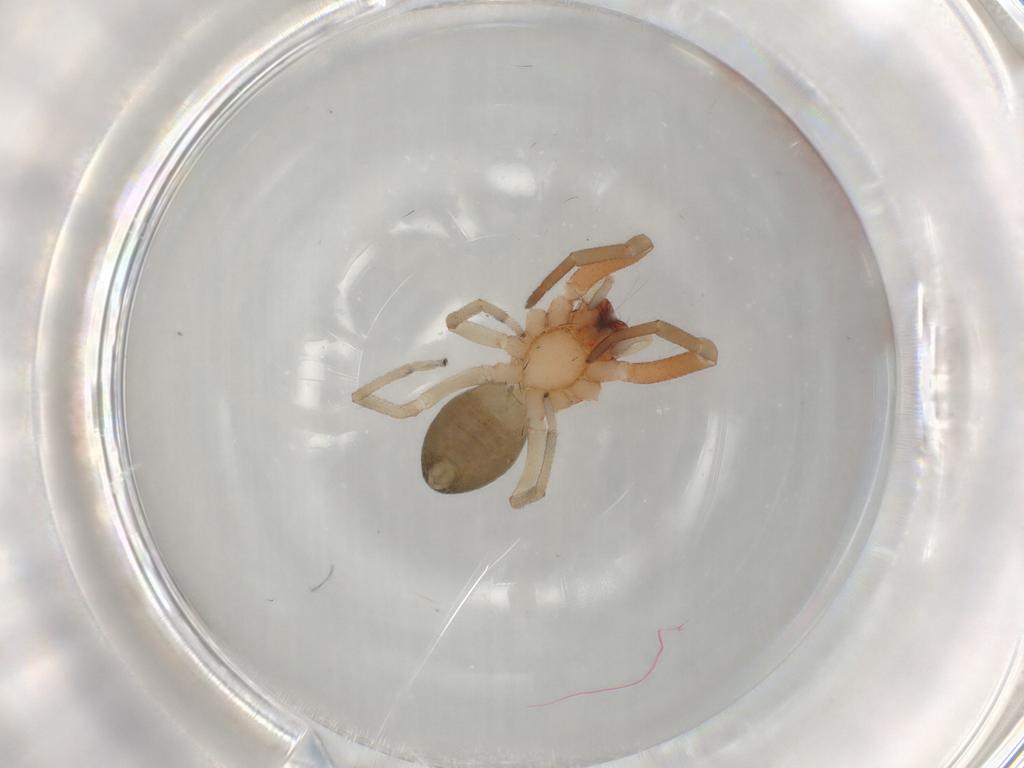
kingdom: Animalia
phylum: Arthropoda
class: Arachnida
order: Araneae
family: Trachelidae
